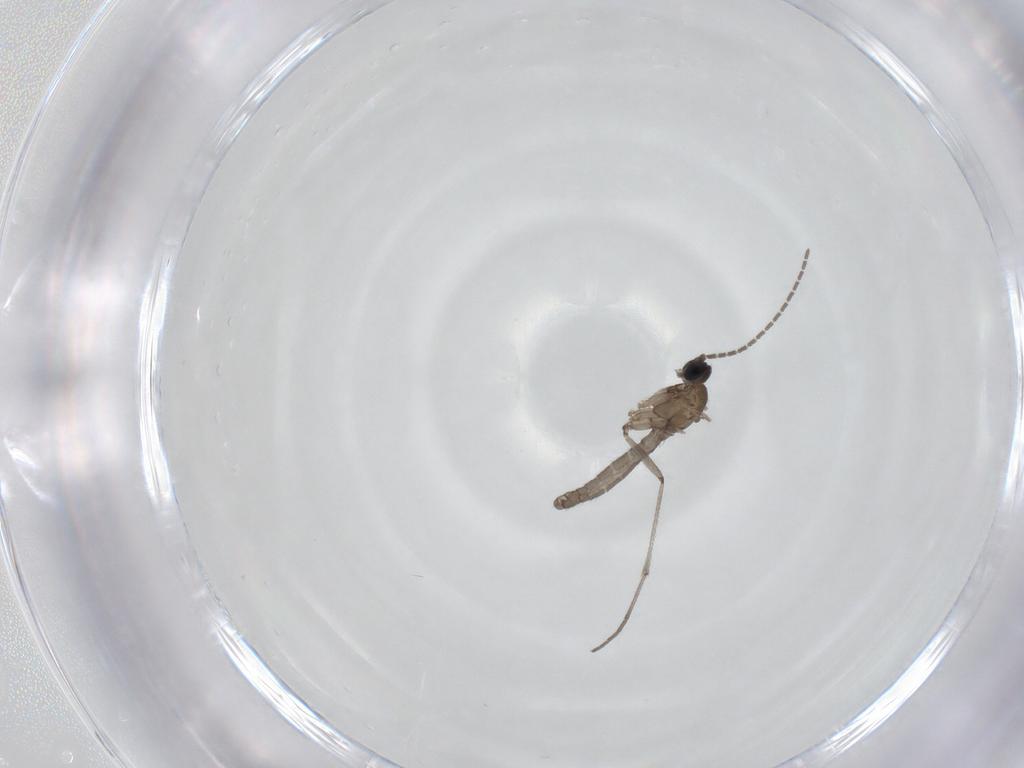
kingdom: Animalia
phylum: Arthropoda
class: Insecta
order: Diptera
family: Sciaridae
